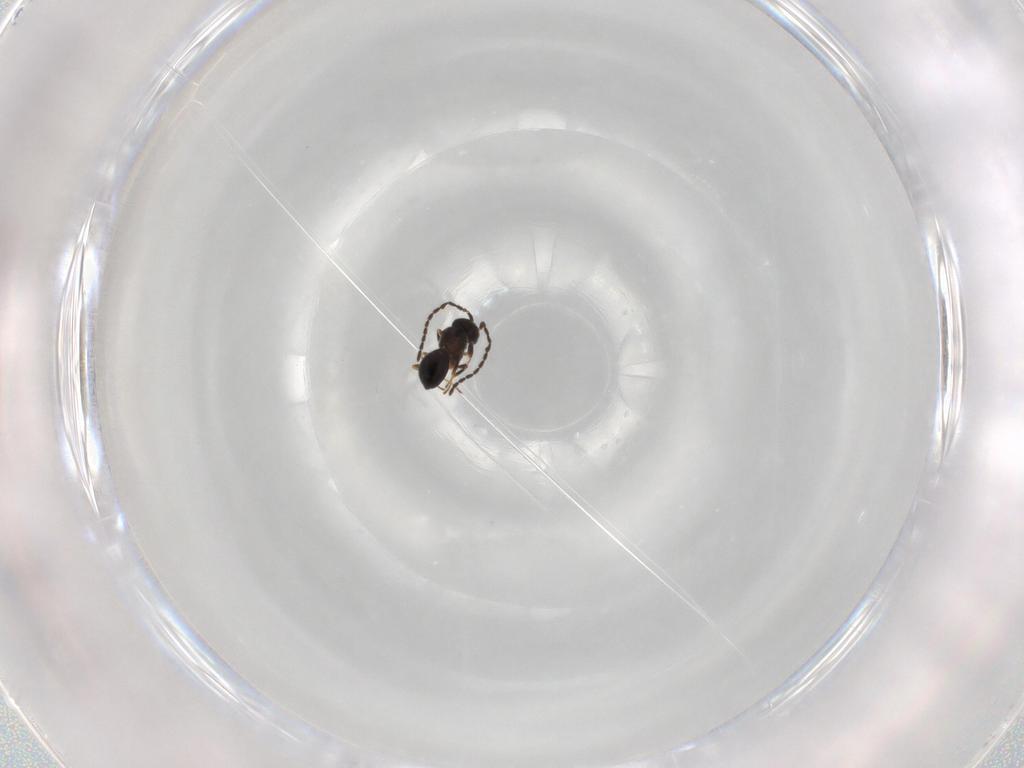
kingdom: Animalia
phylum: Arthropoda
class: Insecta
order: Hymenoptera
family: Scelionidae
